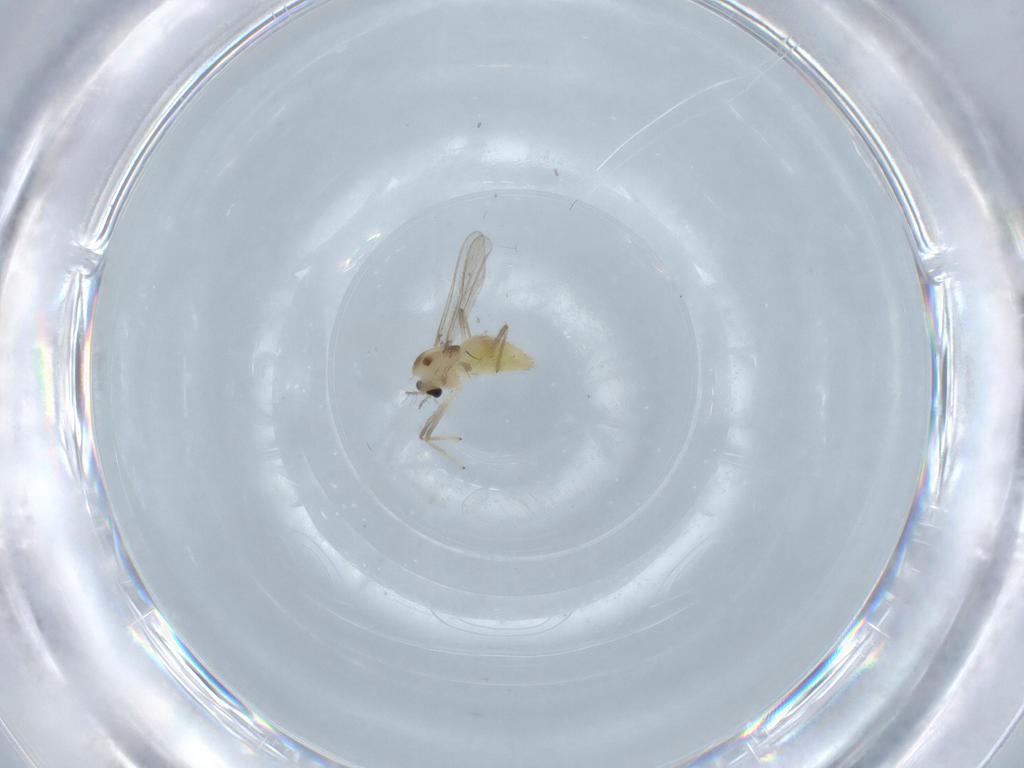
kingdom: Animalia
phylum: Arthropoda
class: Insecta
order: Diptera
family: Chironomidae
